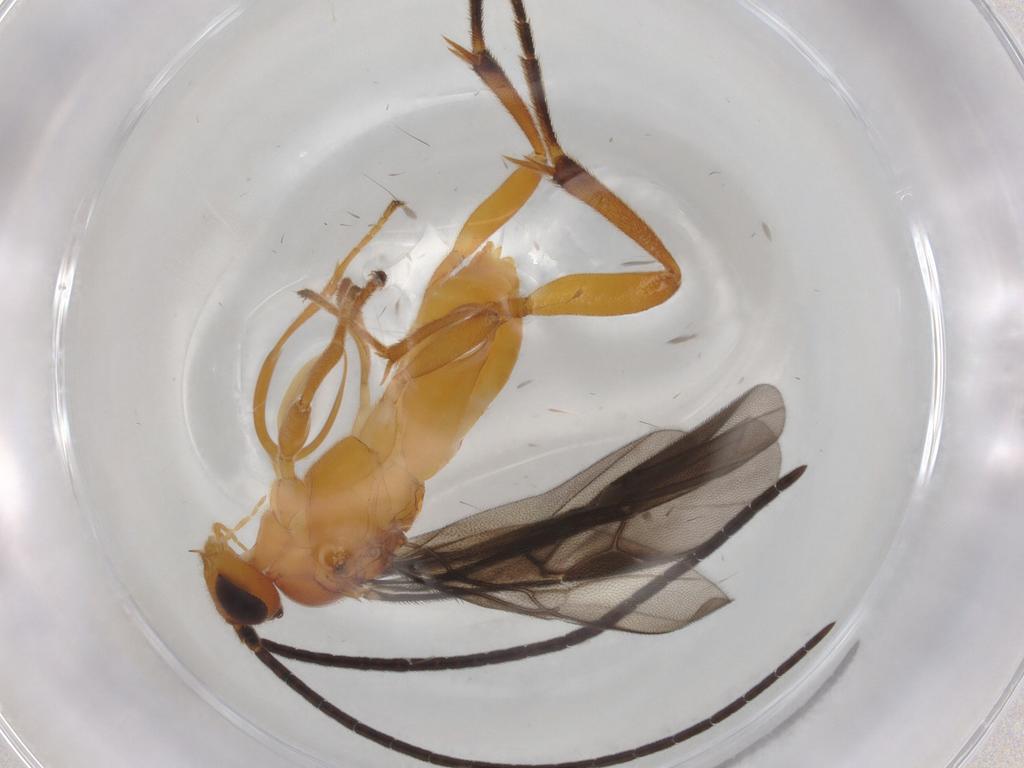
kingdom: Animalia
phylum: Arthropoda
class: Insecta
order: Hymenoptera
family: Braconidae
